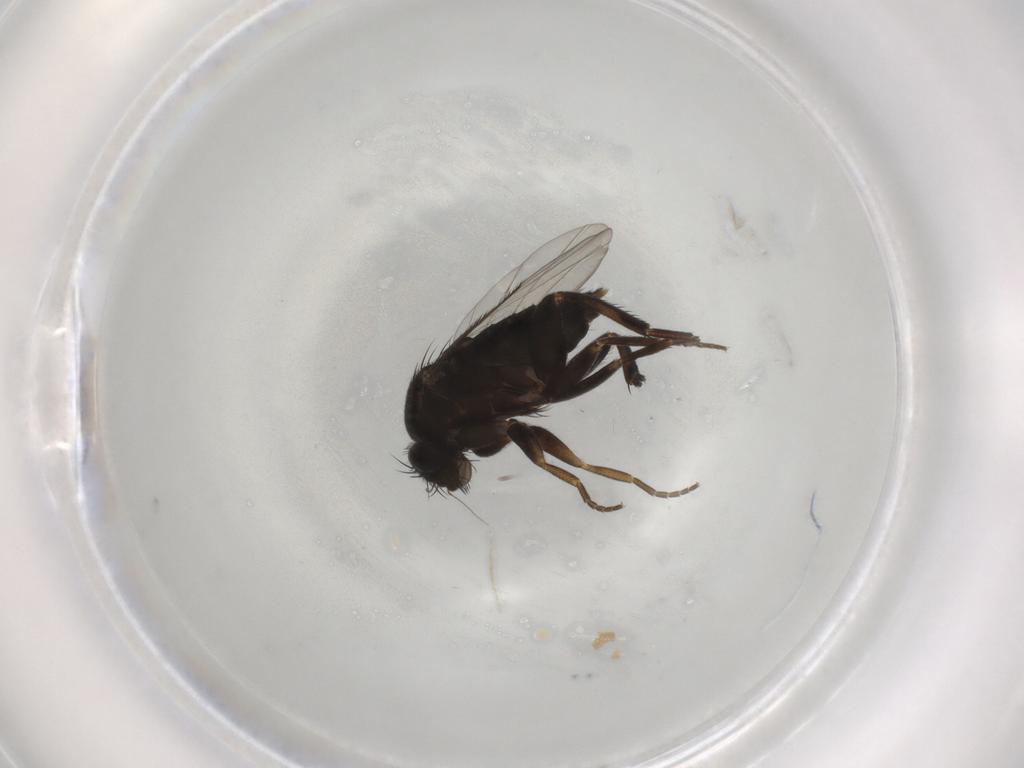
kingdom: Animalia
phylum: Arthropoda
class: Insecta
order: Diptera
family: Phoridae
